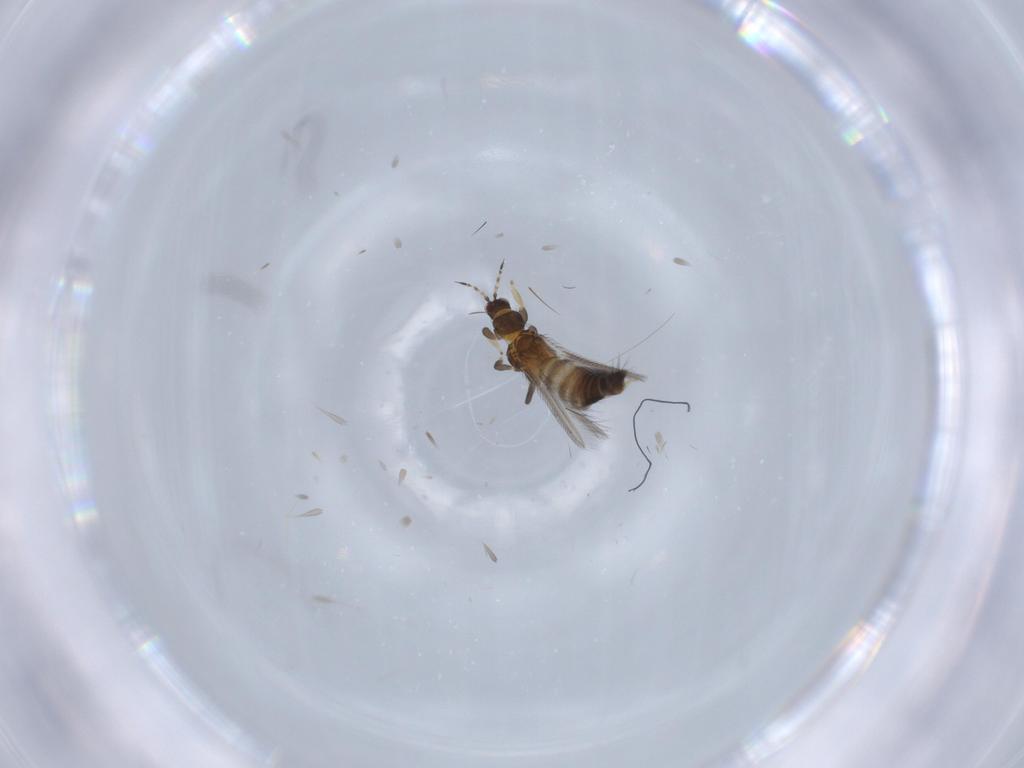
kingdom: Animalia
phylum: Arthropoda
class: Insecta
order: Thysanoptera
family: Thripidae
